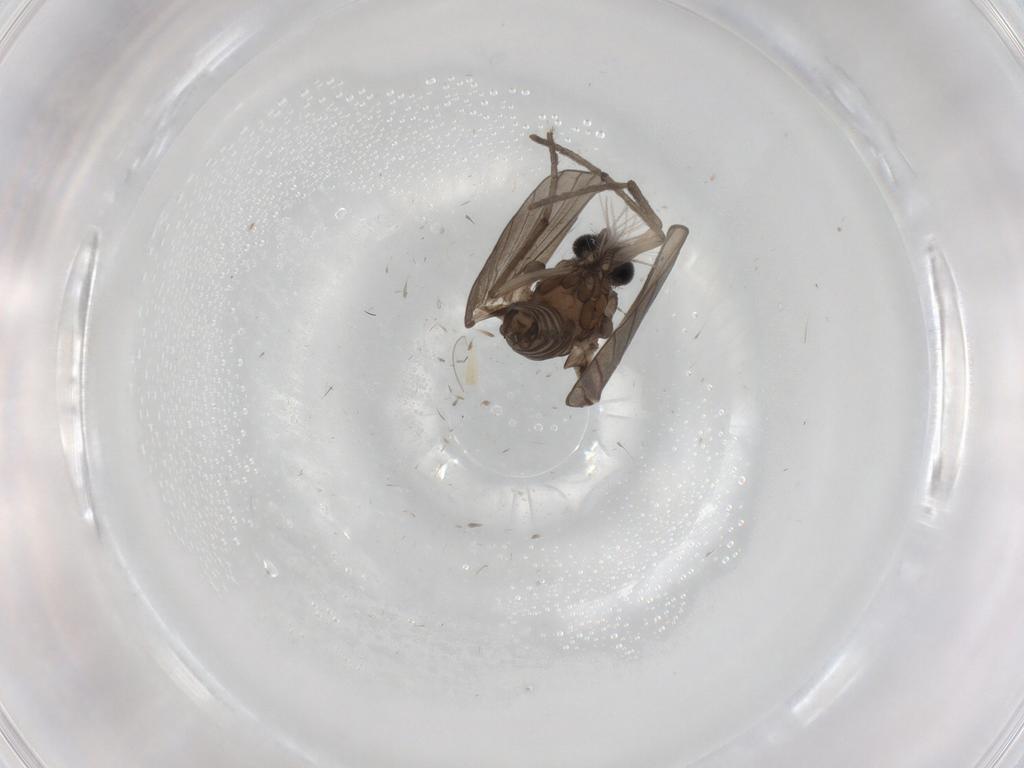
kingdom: Animalia
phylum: Arthropoda
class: Insecta
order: Diptera
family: Psychodidae
